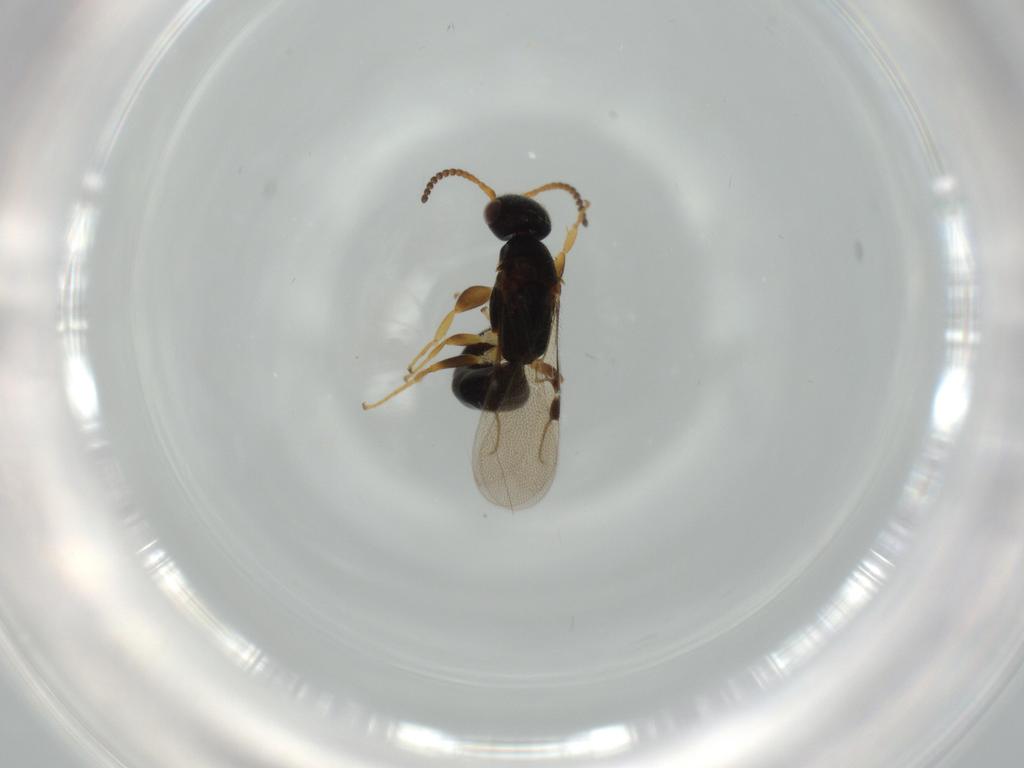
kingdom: Animalia
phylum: Arthropoda
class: Insecta
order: Hymenoptera
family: Bethylidae
